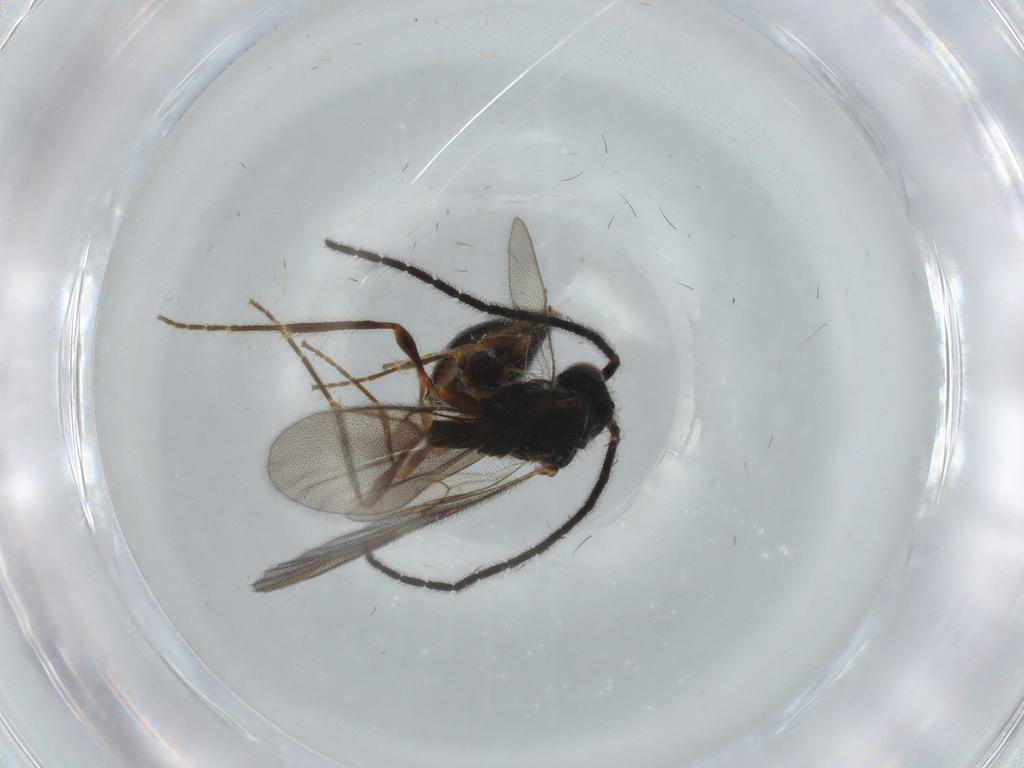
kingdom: Animalia
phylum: Arthropoda
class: Insecta
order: Hymenoptera
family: Diapriidae
